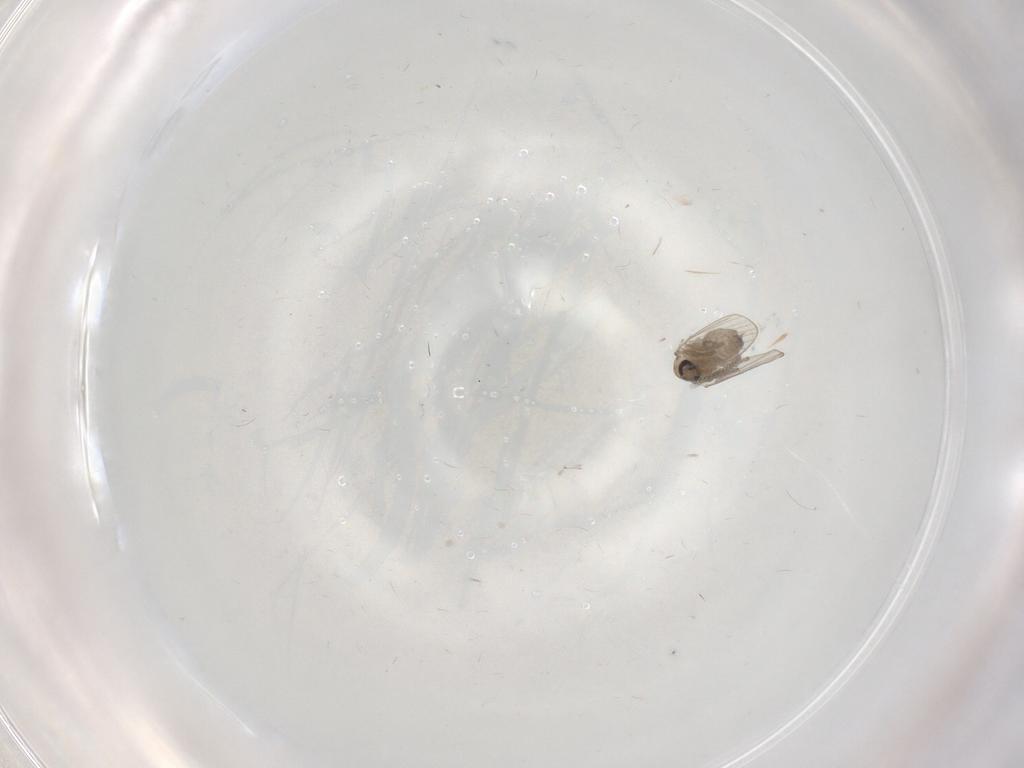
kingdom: Animalia
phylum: Arthropoda
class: Insecta
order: Diptera
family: Psychodidae
